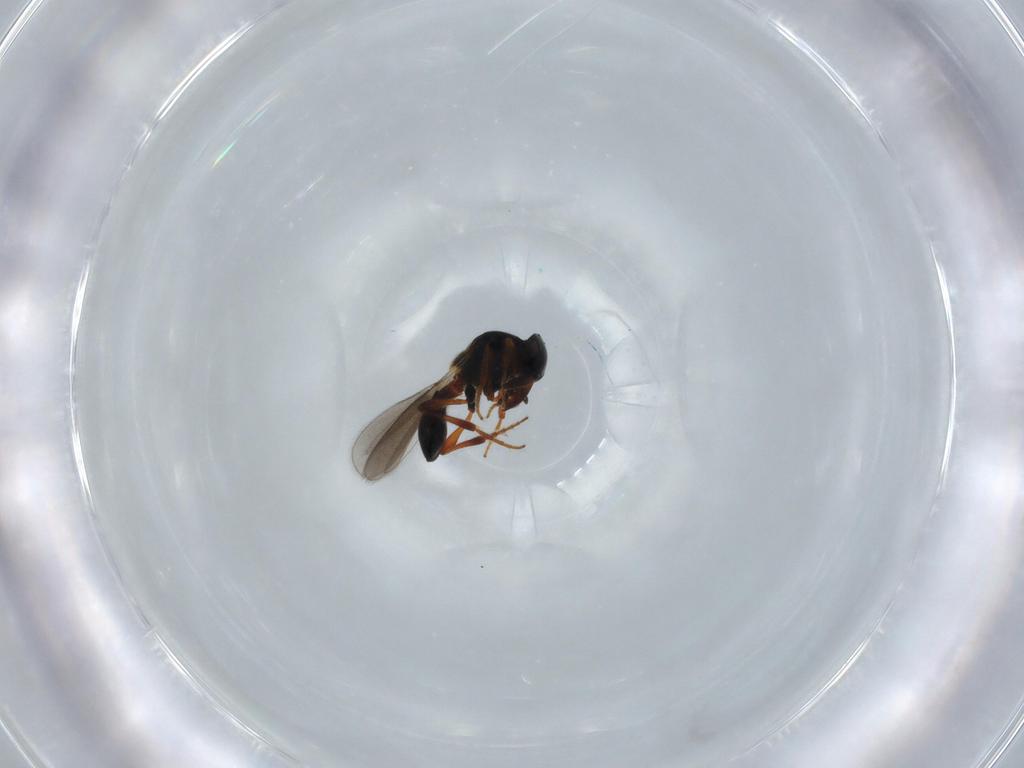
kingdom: Animalia
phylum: Arthropoda
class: Insecta
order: Hymenoptera
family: Platygastridae
